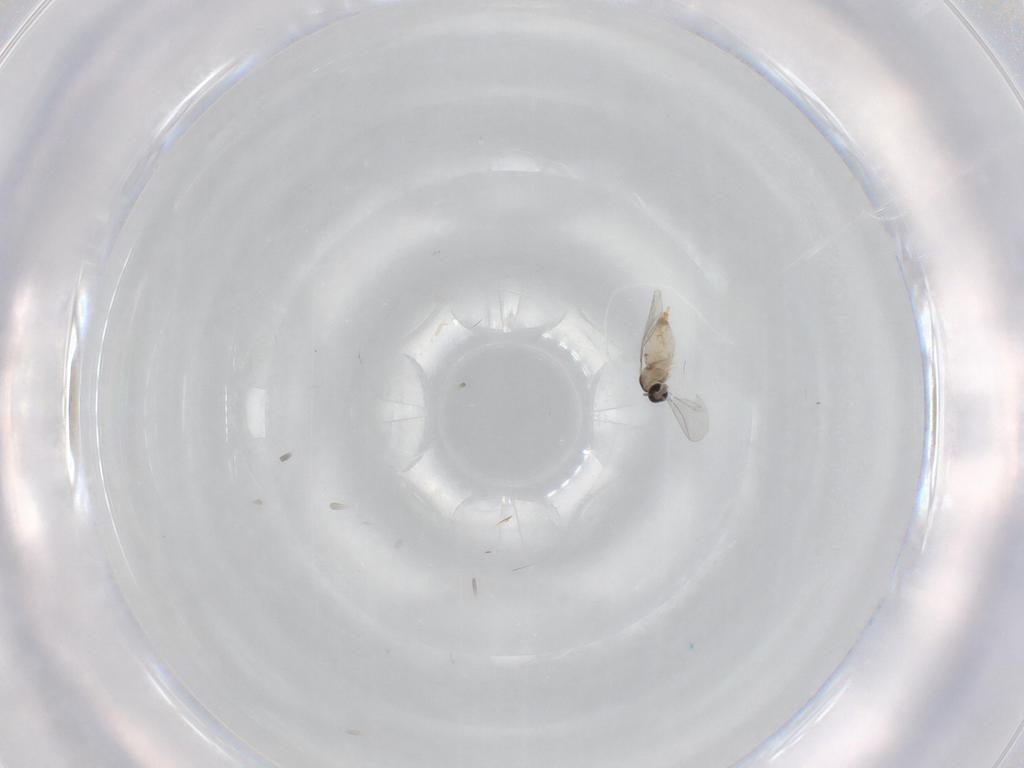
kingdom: Animalia
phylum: Arthropoda
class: Insecta
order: Diptera
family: Cecidomyiidae
